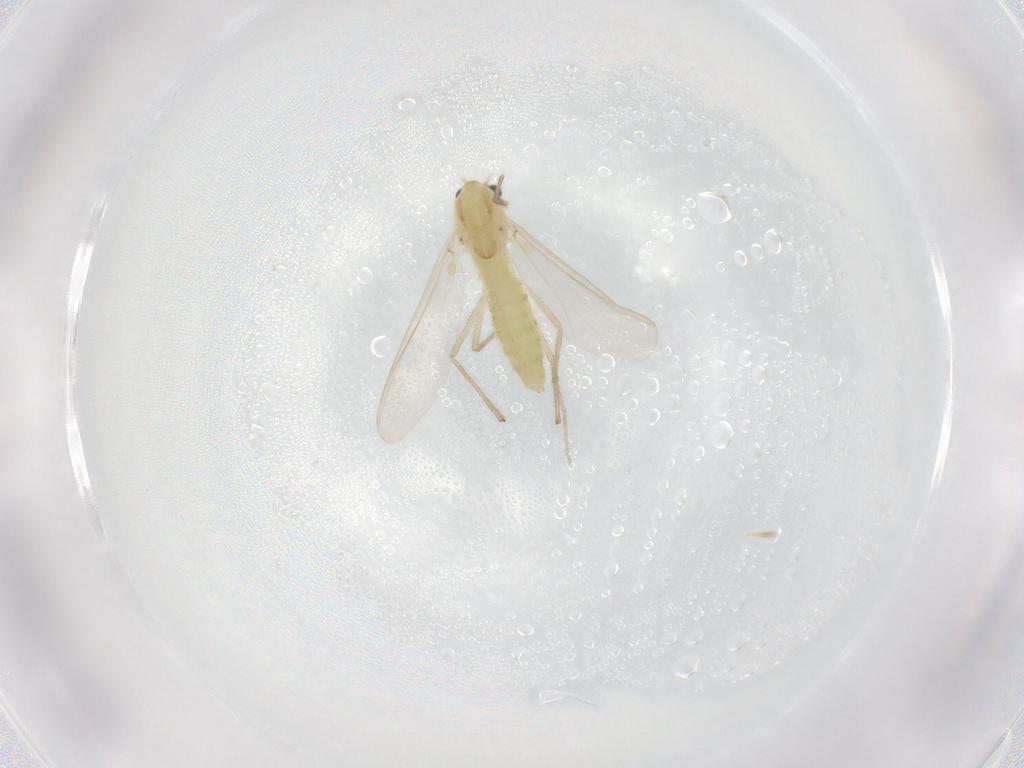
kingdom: Animalia
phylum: Arthropoda
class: Insecta
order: Diptera
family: Chironomidae
